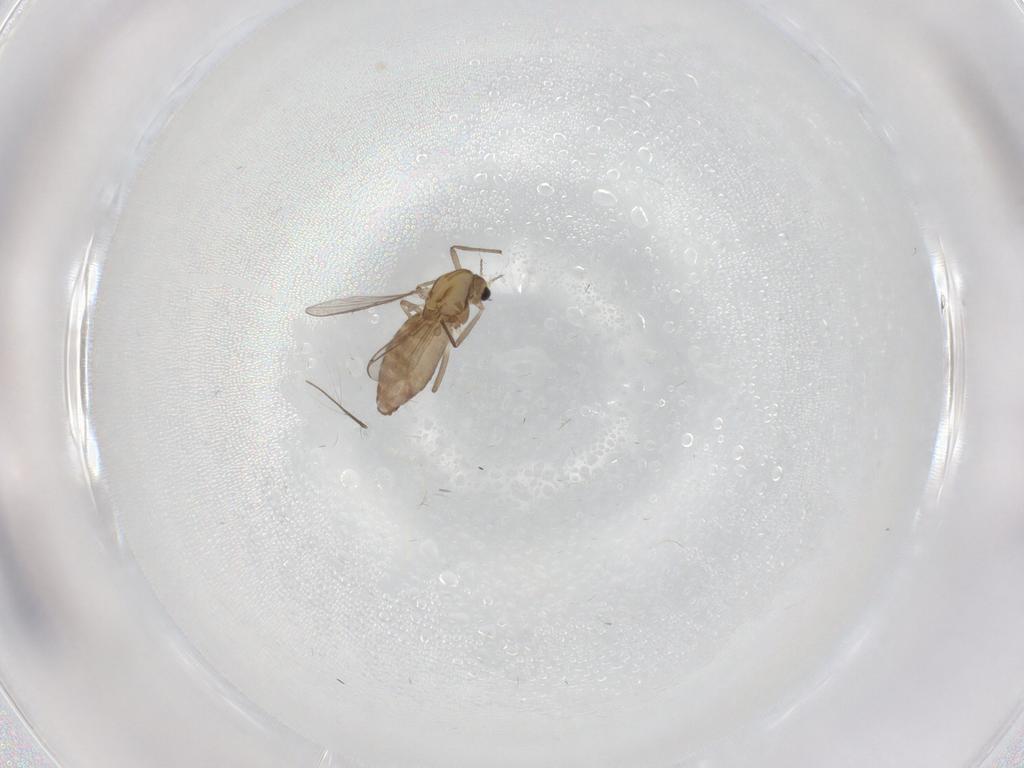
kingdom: Animalia
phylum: Arthropoda
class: Insecta
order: Diptera
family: Chironomidae
